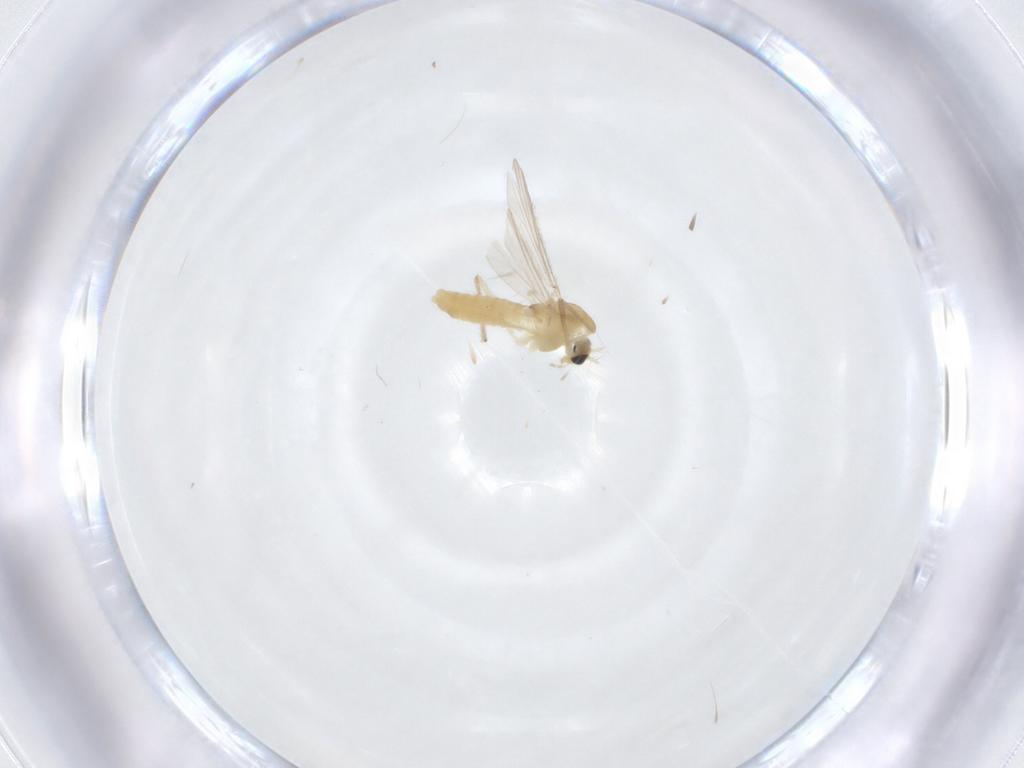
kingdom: Animalia
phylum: Arthropoda
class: Insecta
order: Diptera
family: Chironomidae
